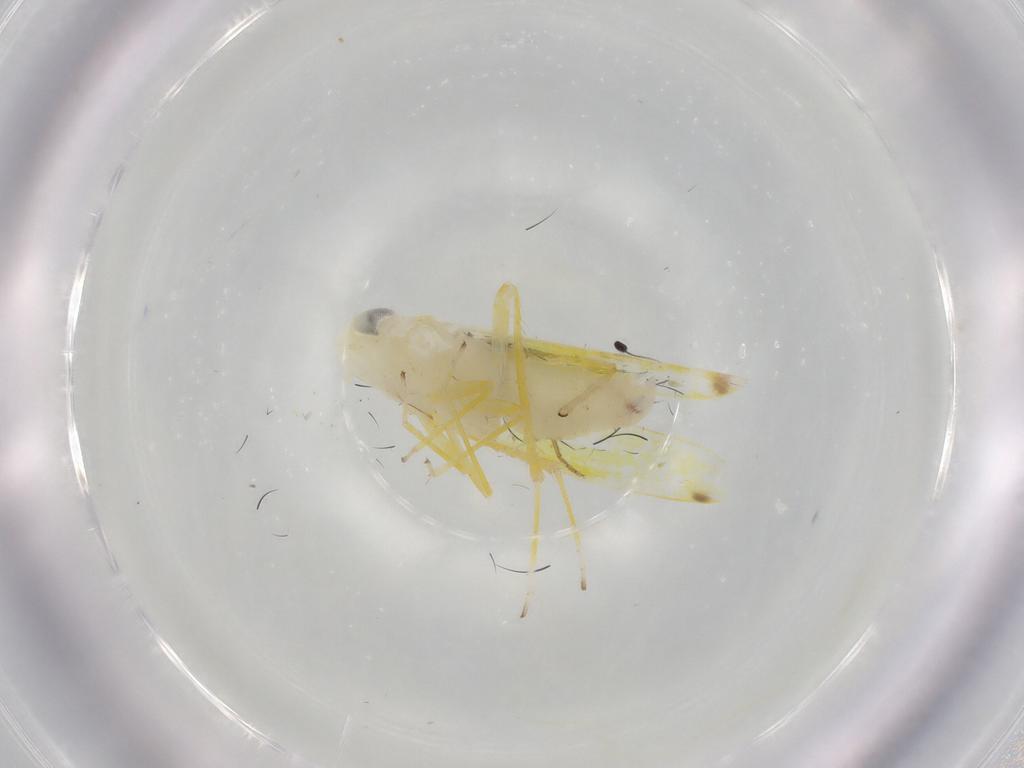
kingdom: Animalia
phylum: Arthropoda
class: Insecta
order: Hemiptera
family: Cicadellidae
